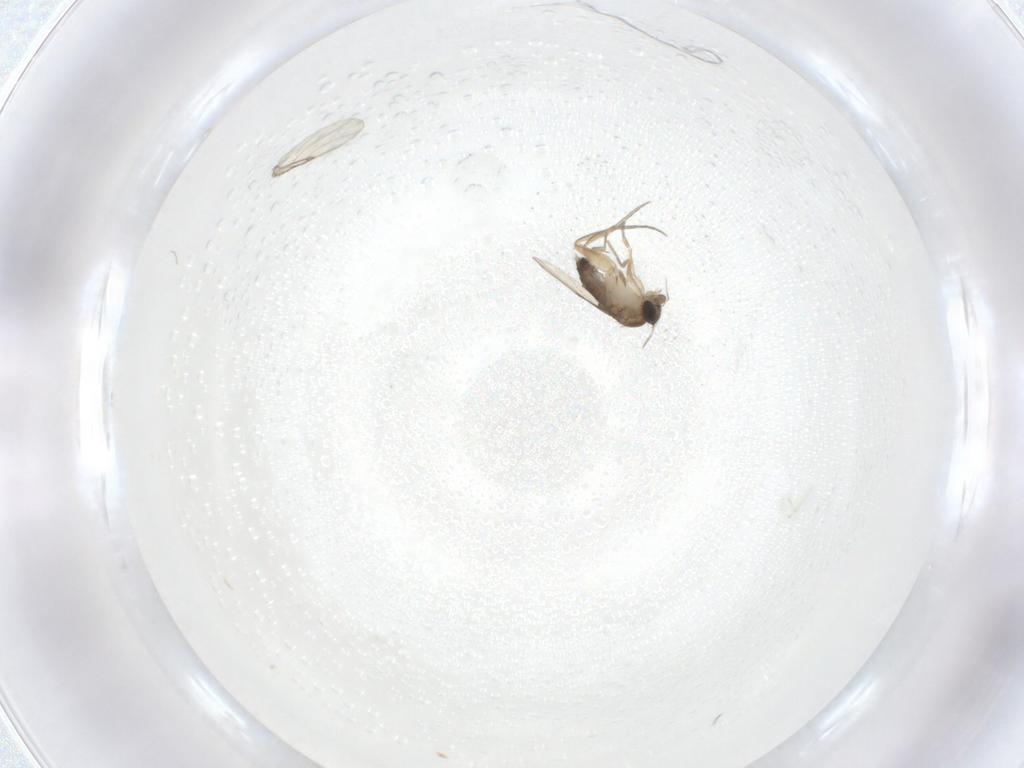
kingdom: Animalia
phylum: Arthropoda
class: Insecta
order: Diptera
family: Phoridae
